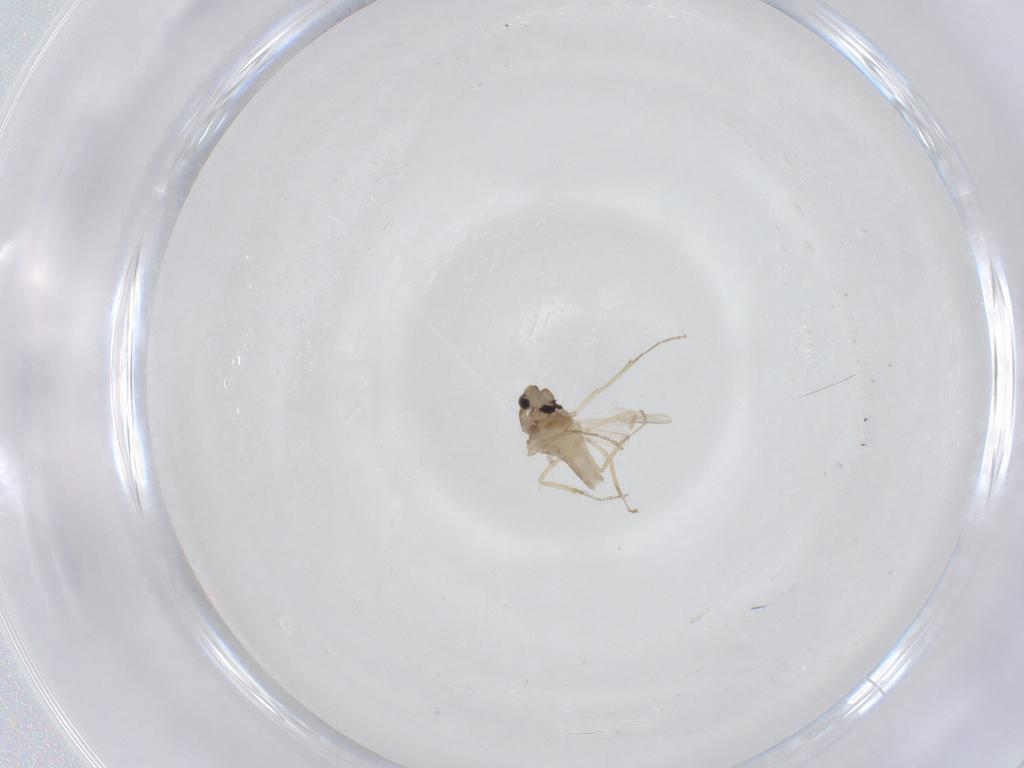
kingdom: Animalia
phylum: Arthropoda
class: Insecta
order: Diptera
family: Ceratopogonidae
